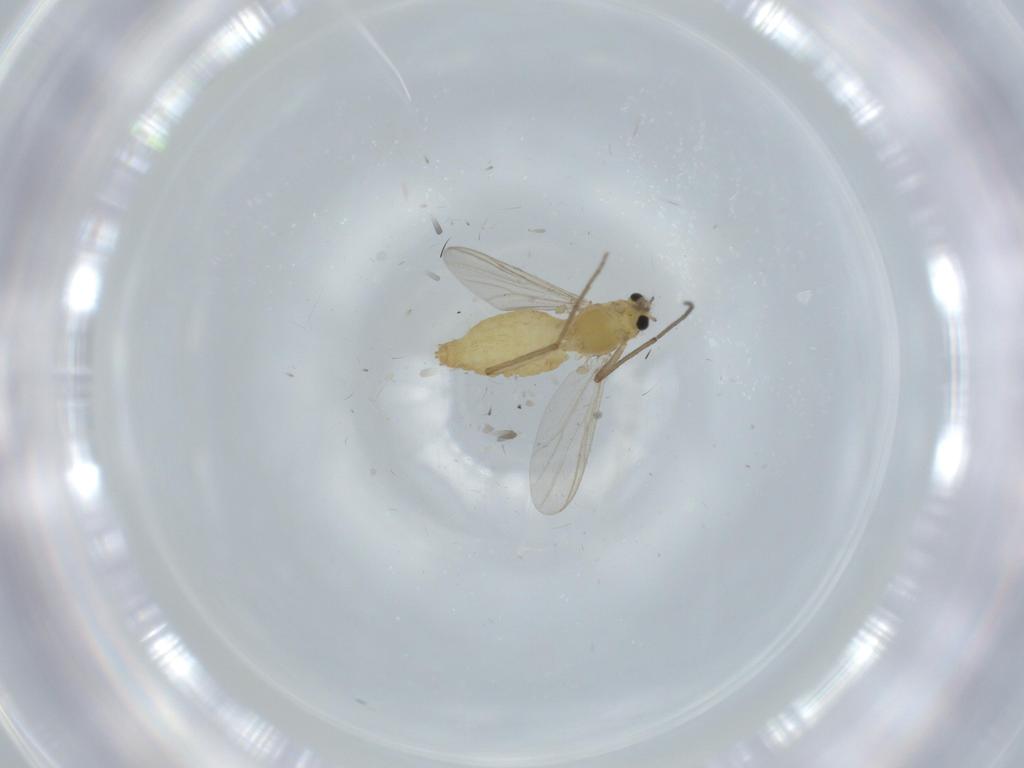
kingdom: Animalia
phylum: Arthropoda
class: Insecta
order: Diptera
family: Chironomidae
